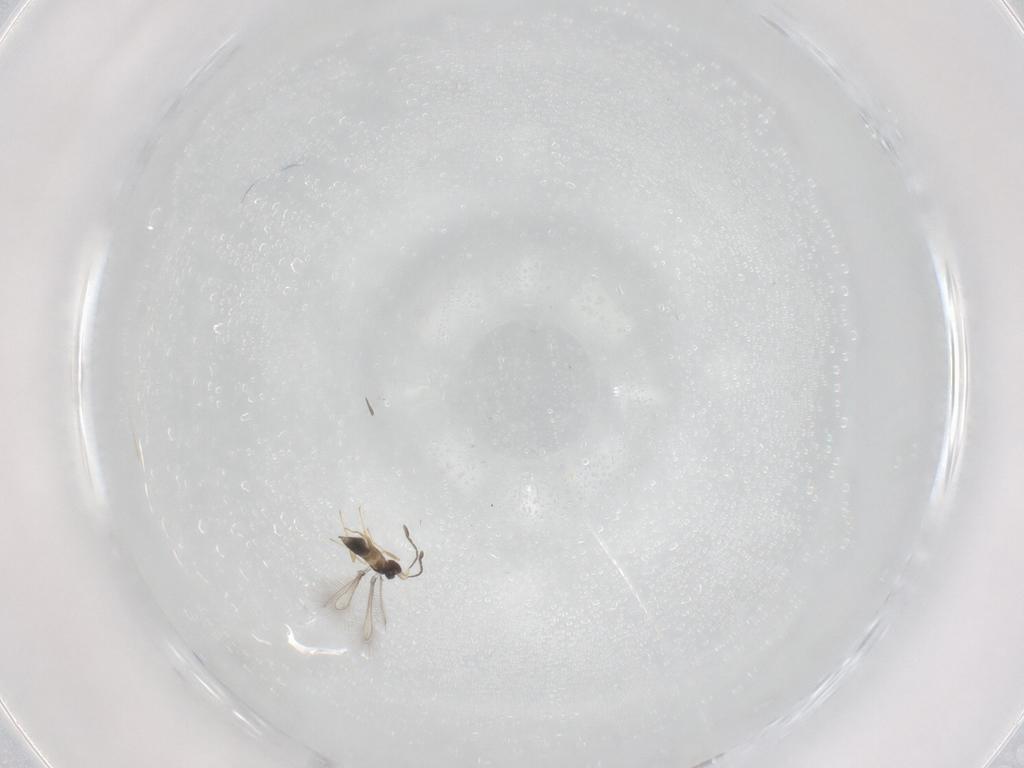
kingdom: Animalia
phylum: Arthropoda
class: Insecta
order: Hymenoptera
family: Mymaridae
